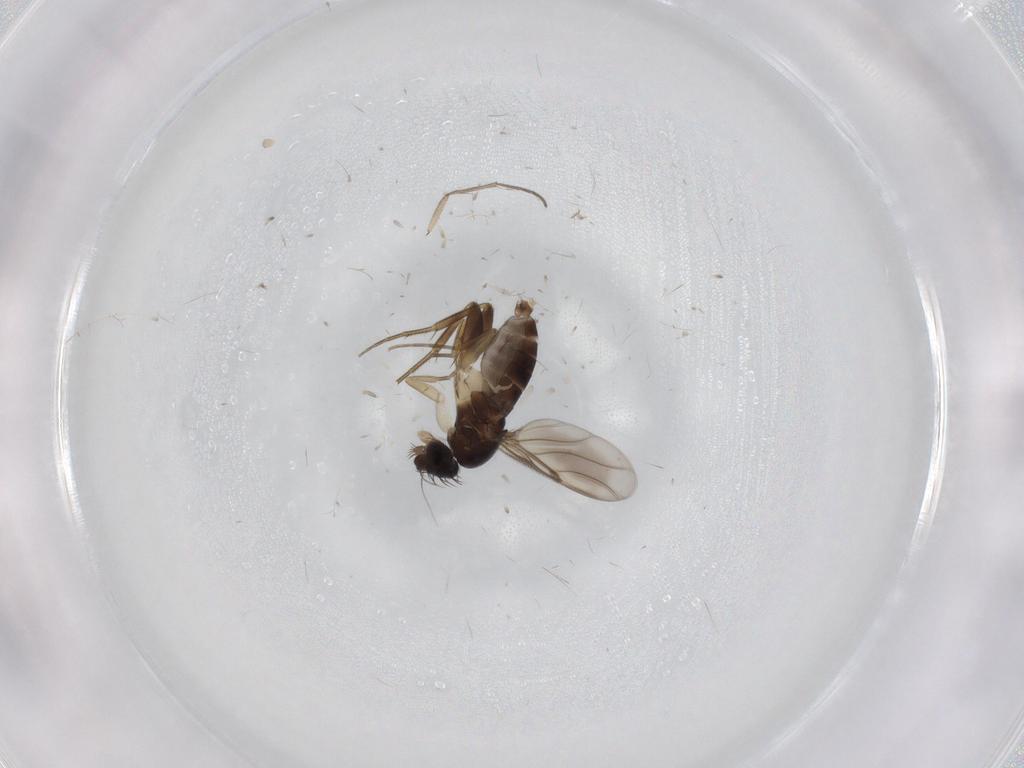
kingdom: Animalia
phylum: Arthropoda
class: Insecta
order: Diptera
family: Phoridae
